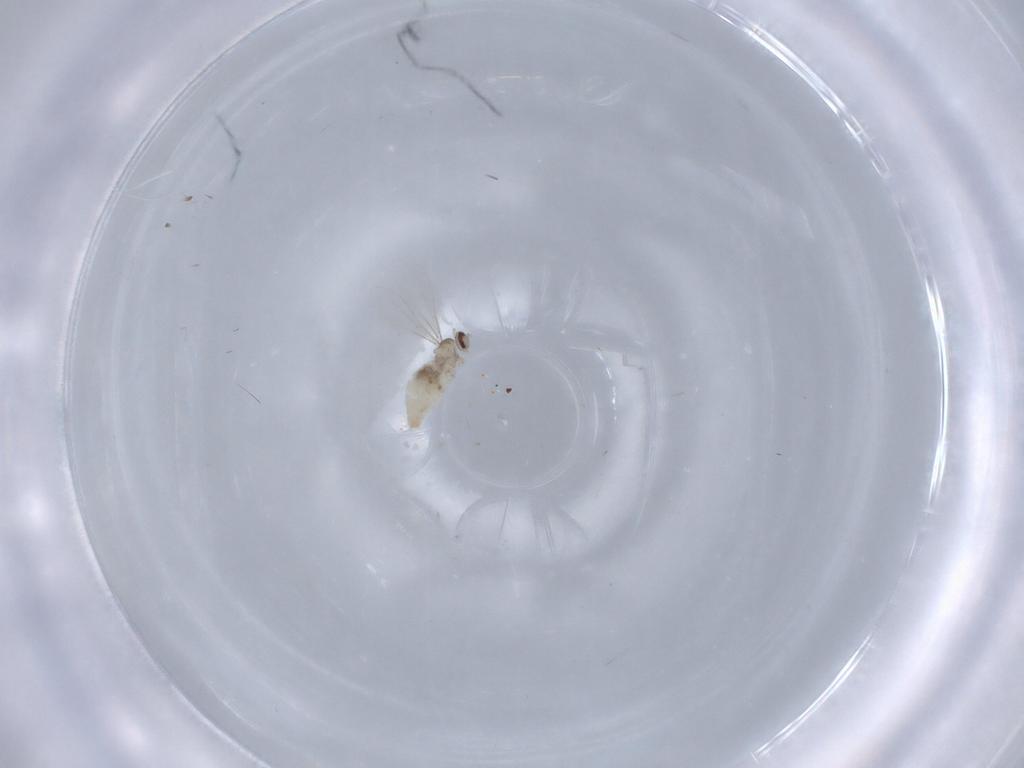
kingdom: Animalia
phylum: Arthropoda
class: Insecta
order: Diptera
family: Cecidomyiidae
